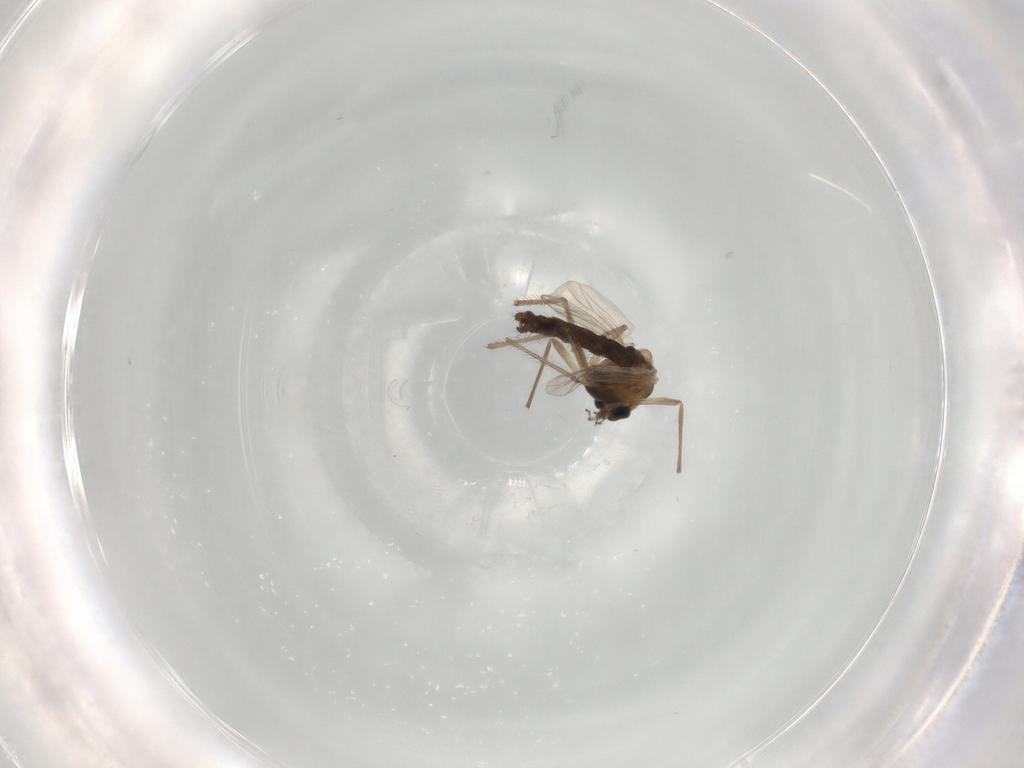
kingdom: Animalia
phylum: Arthropoda
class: Insecta
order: Diptera
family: Chironomidae
